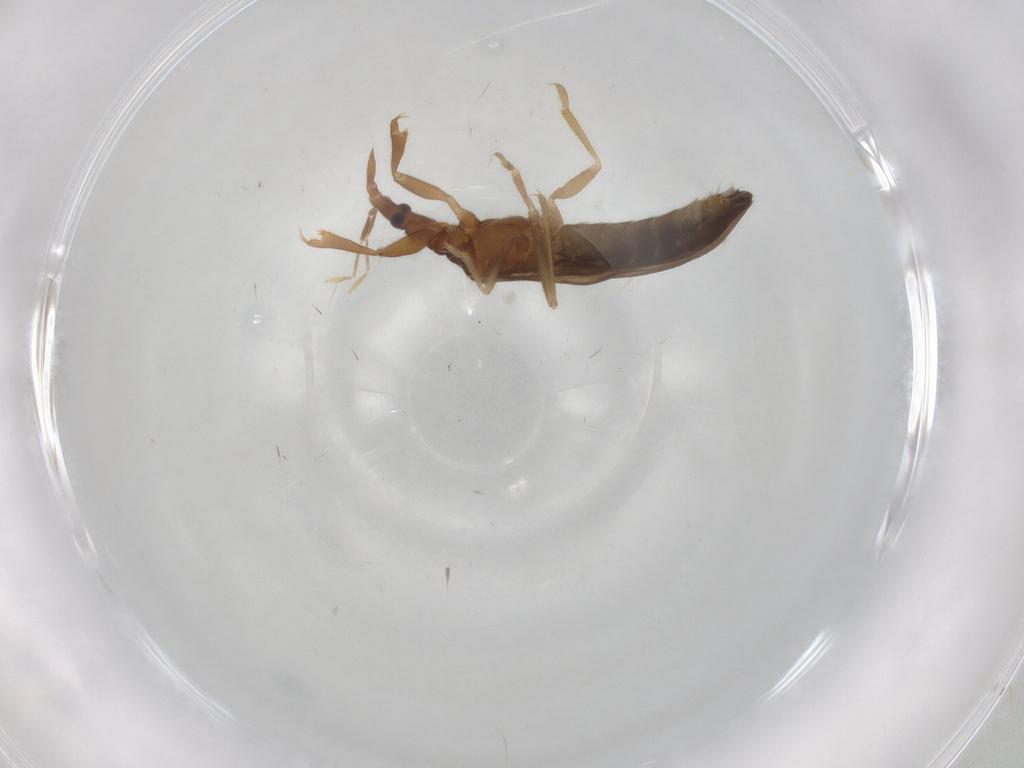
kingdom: Animalia
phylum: Arthropoda
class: Insecta
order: Hemiptera
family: Enicocephalidae
